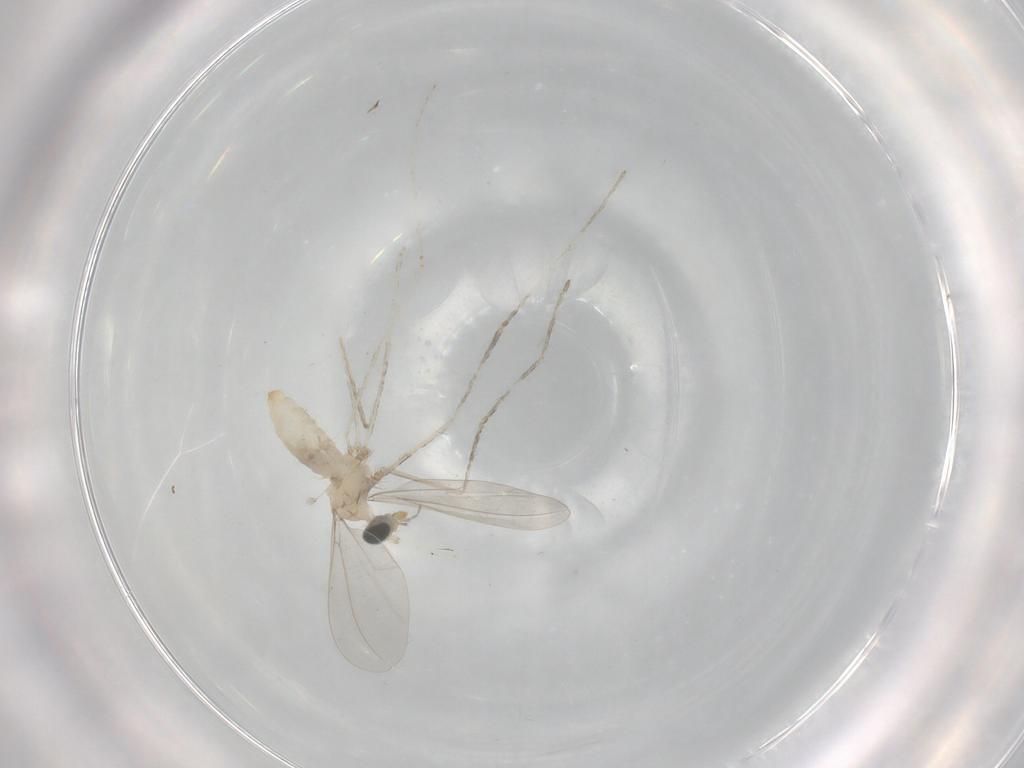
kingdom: Animalia
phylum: Arthropoda
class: Insecta
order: Diptera
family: Cecidomyiidae
